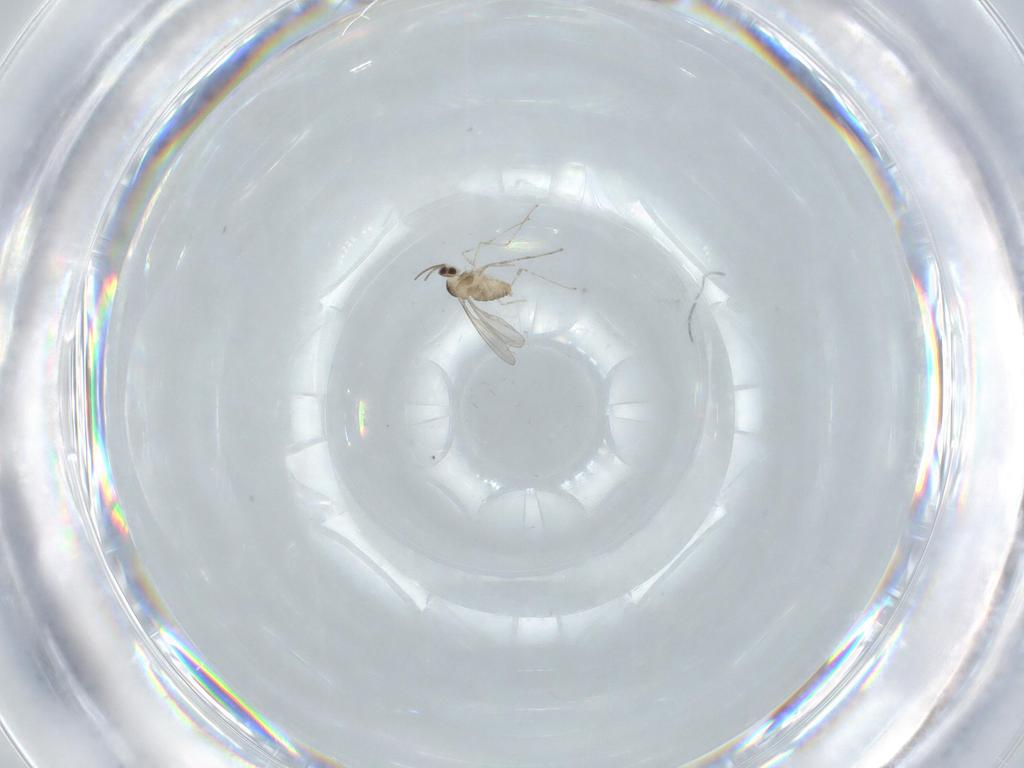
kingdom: Animalia
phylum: Arthropoda
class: Insecta
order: Diptera
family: Cecidomyiidae
